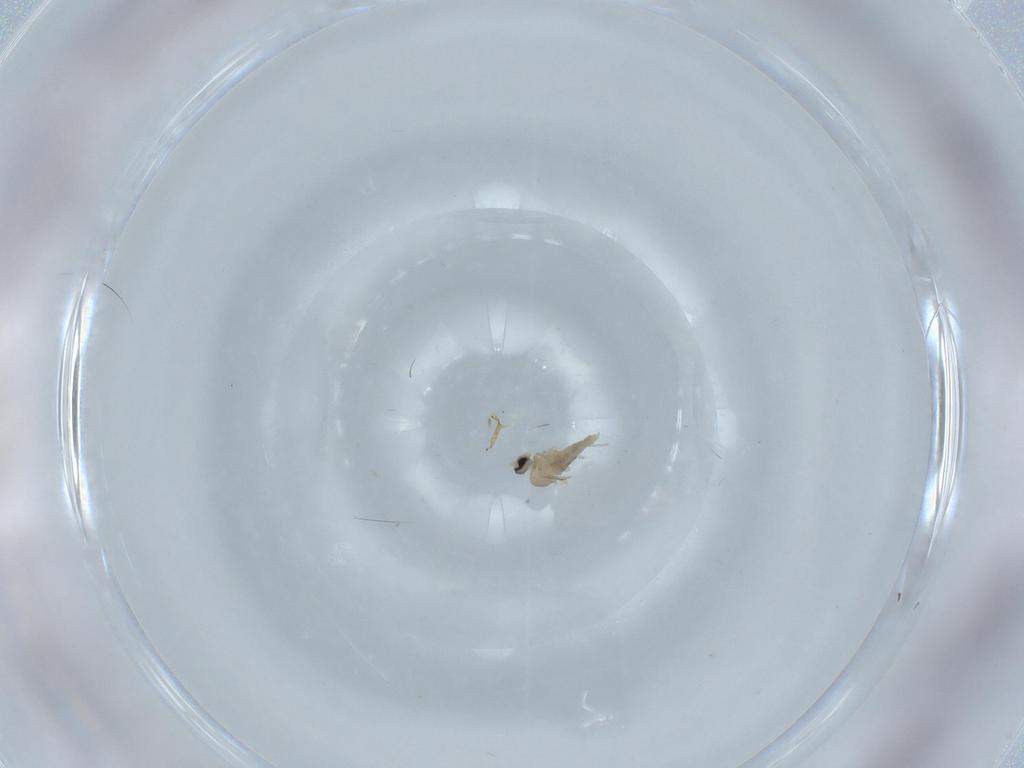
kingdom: Animalia
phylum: Arthropoda
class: Insecta
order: Diptera
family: Cecidomyiidae
